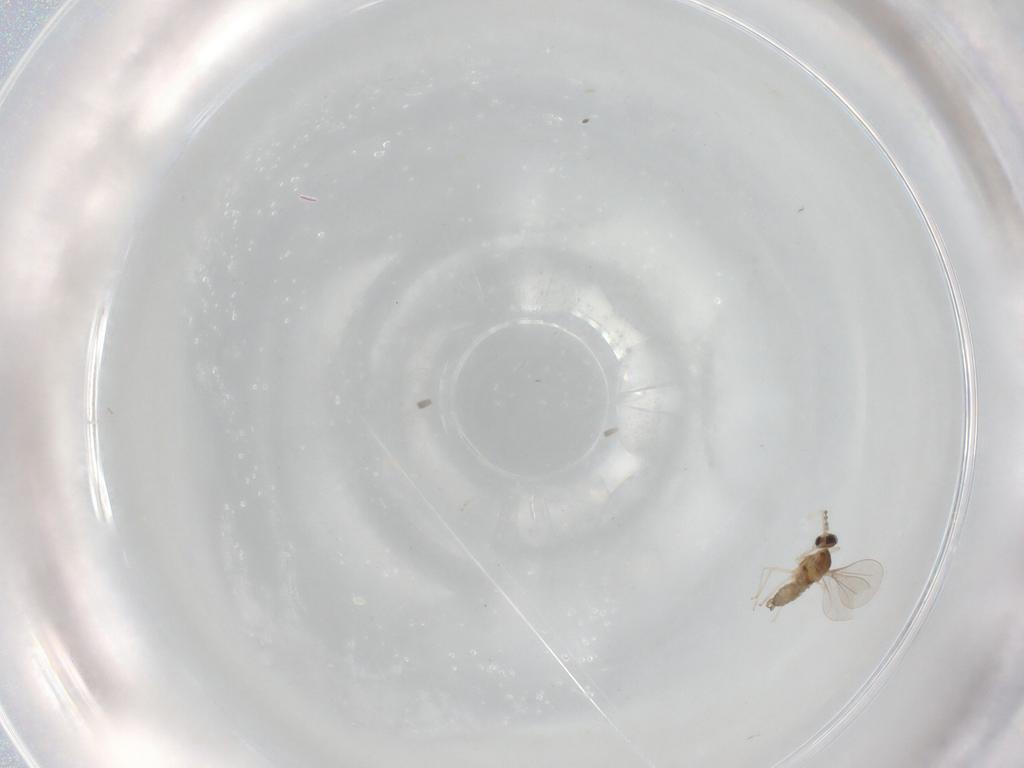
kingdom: Animalia
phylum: Arthropoda
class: Insecta
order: Diptera
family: Cecidomyiidae
